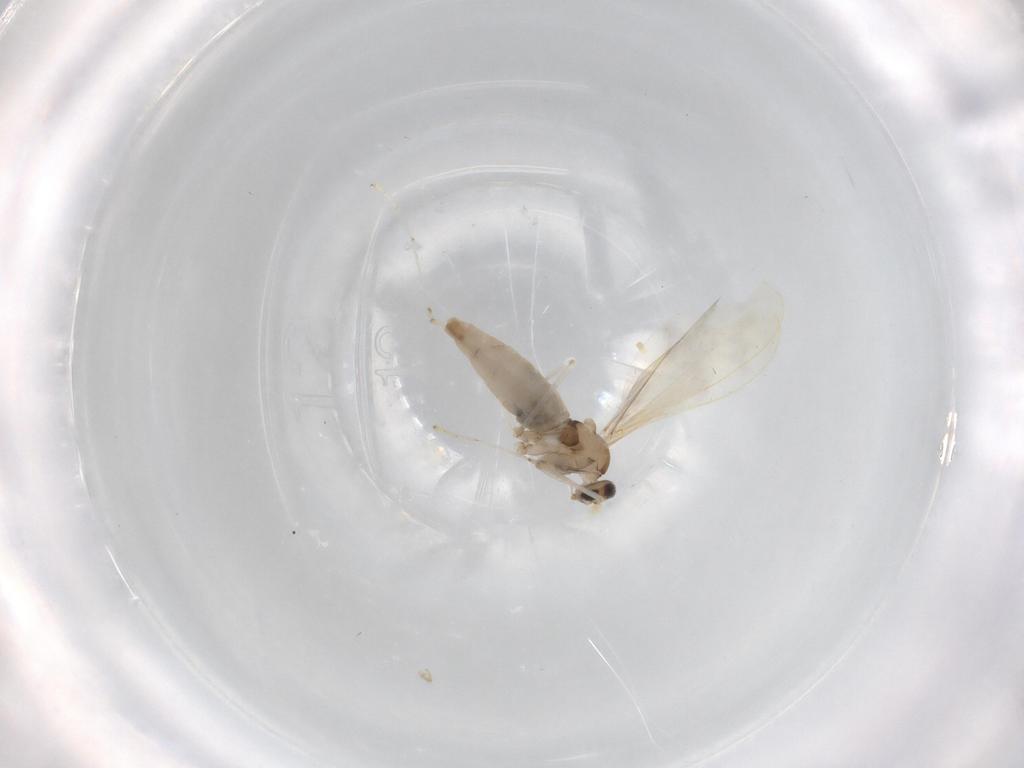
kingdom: Animalia
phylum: Arthropoda
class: Insecta
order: Diptera
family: Cecidomyiidae
